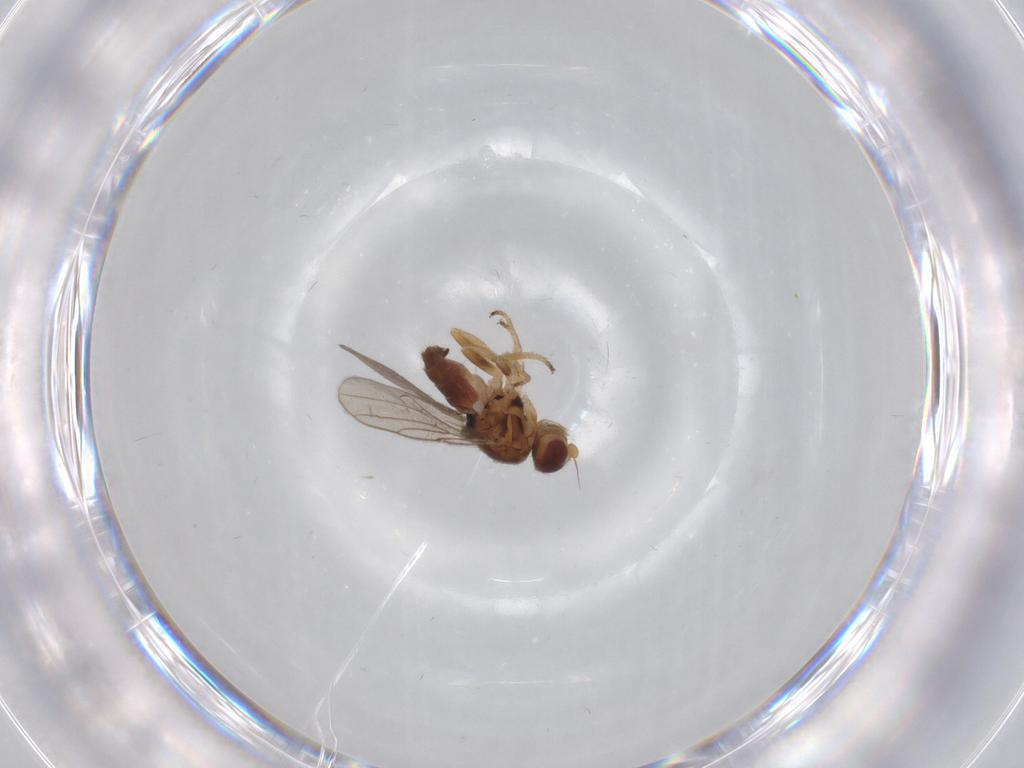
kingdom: Animalia
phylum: Arthropoda
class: Insecta
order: Diptera
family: Chloropidae
